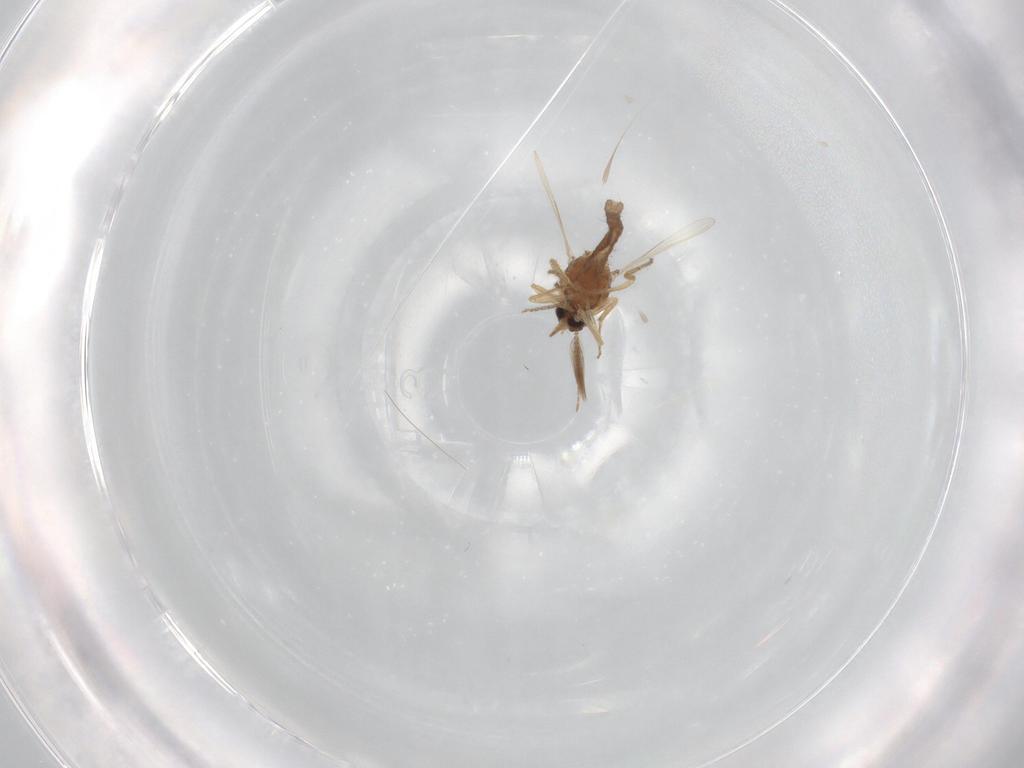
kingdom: Animalia
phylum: Arthropoda
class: Insecta
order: Diptera
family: Ceratopogonidae
